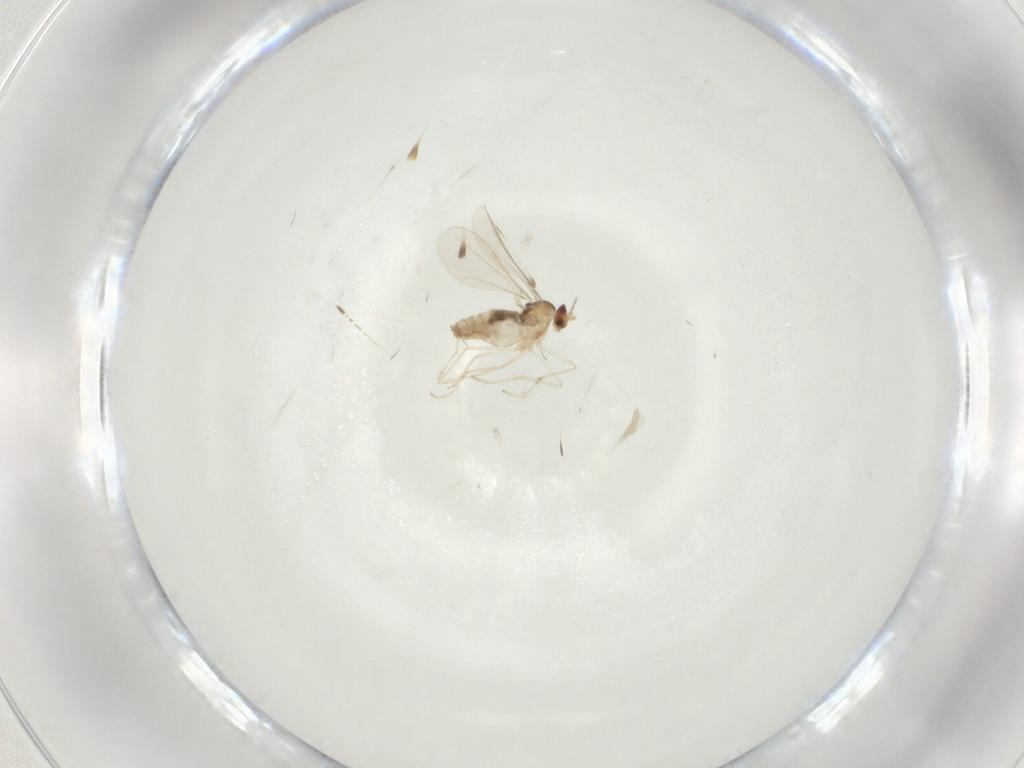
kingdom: Animalia
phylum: Arthropoda
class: Insecta
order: Diptera
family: Cecidomyiidae
